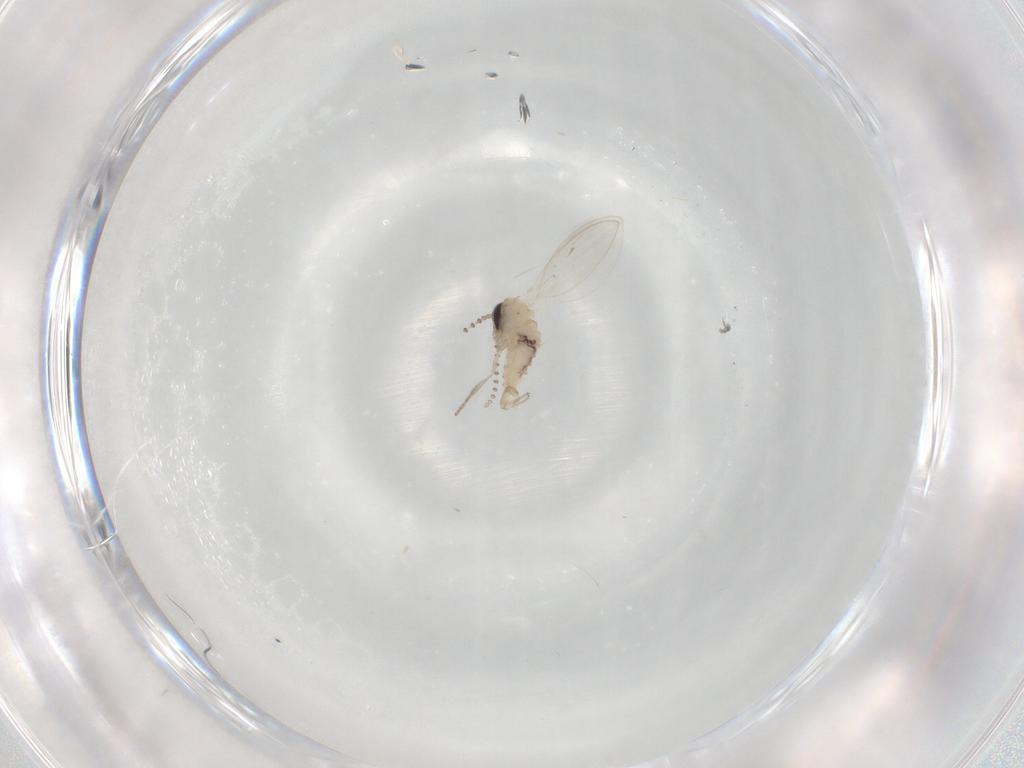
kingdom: Animalia
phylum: Arthropoda
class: Insecta
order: Diptera
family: Psychodidae
